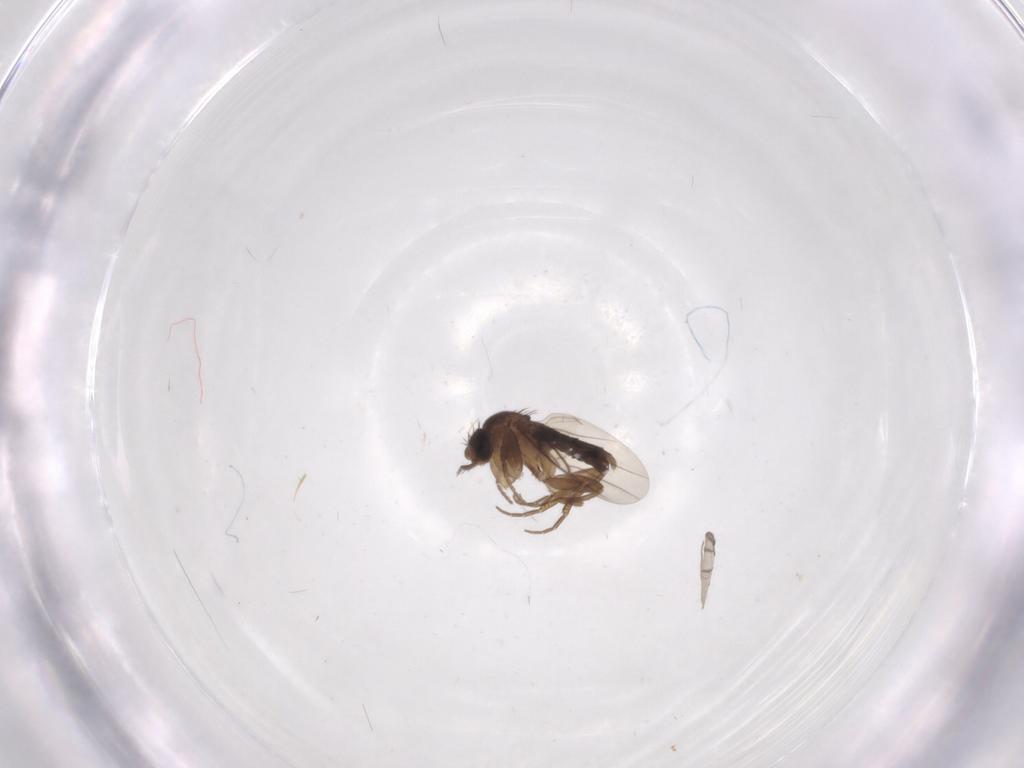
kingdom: Animalia
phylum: Arthropoda
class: Insecta
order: Diptera
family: Phoridae
